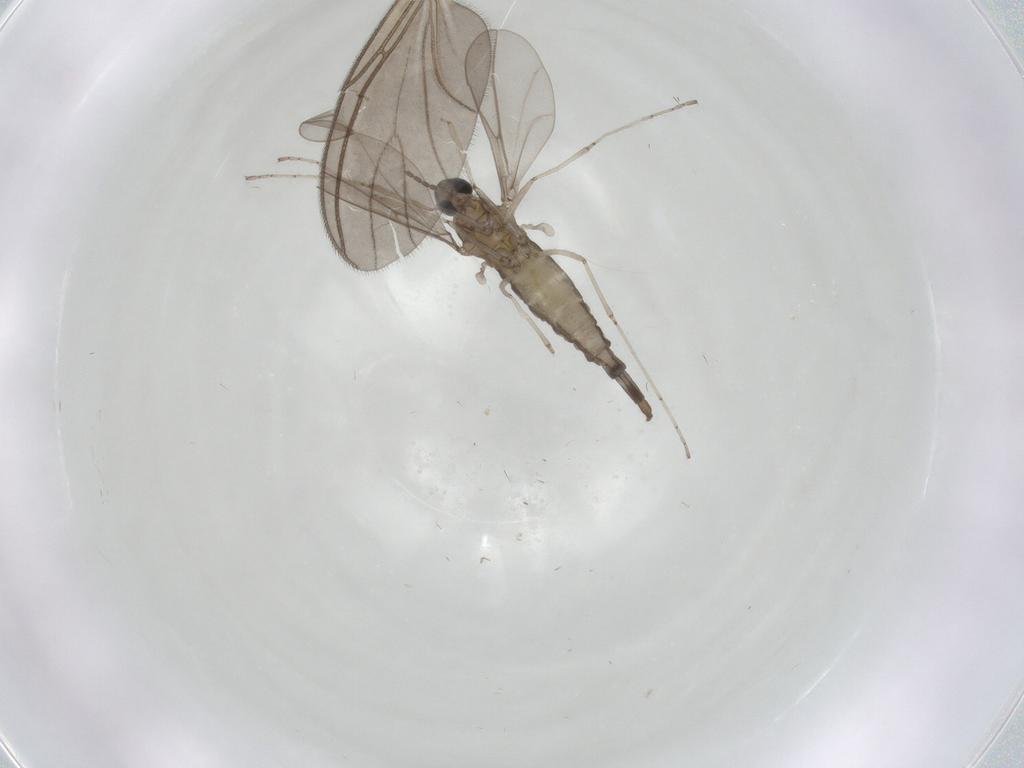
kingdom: Animalia
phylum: Arthropoda
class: Insecta
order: Diptera
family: Sciaridae
